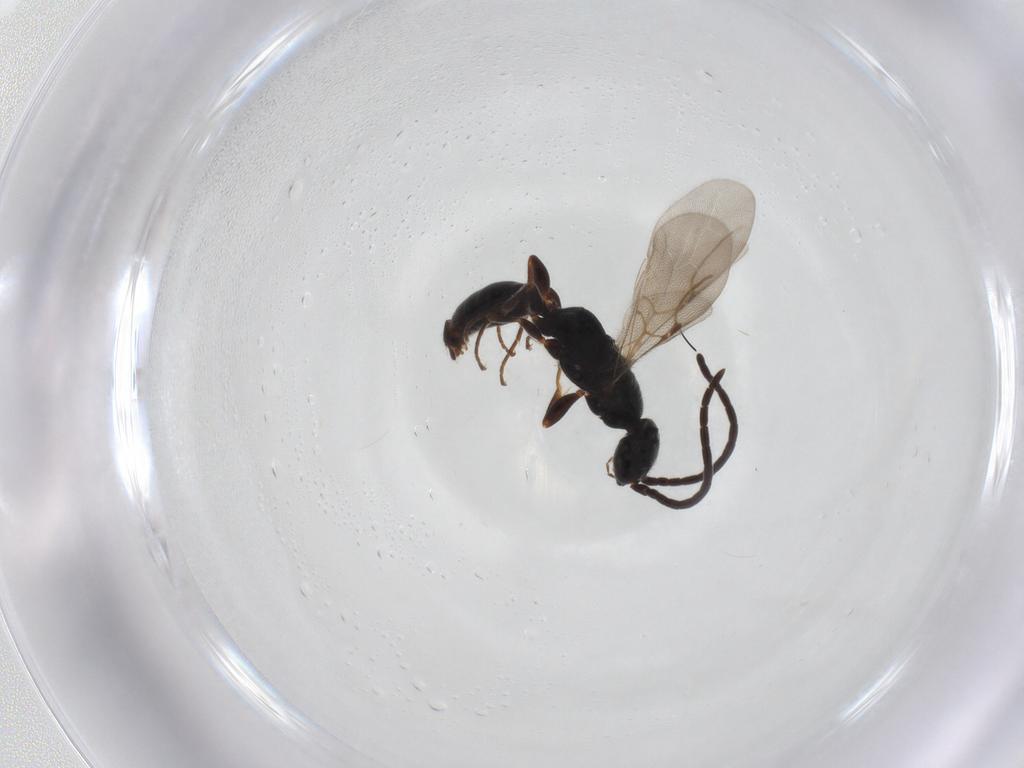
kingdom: Animalia
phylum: Arthropoda
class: Insecta
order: Hymenoptera
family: Bethylidae
